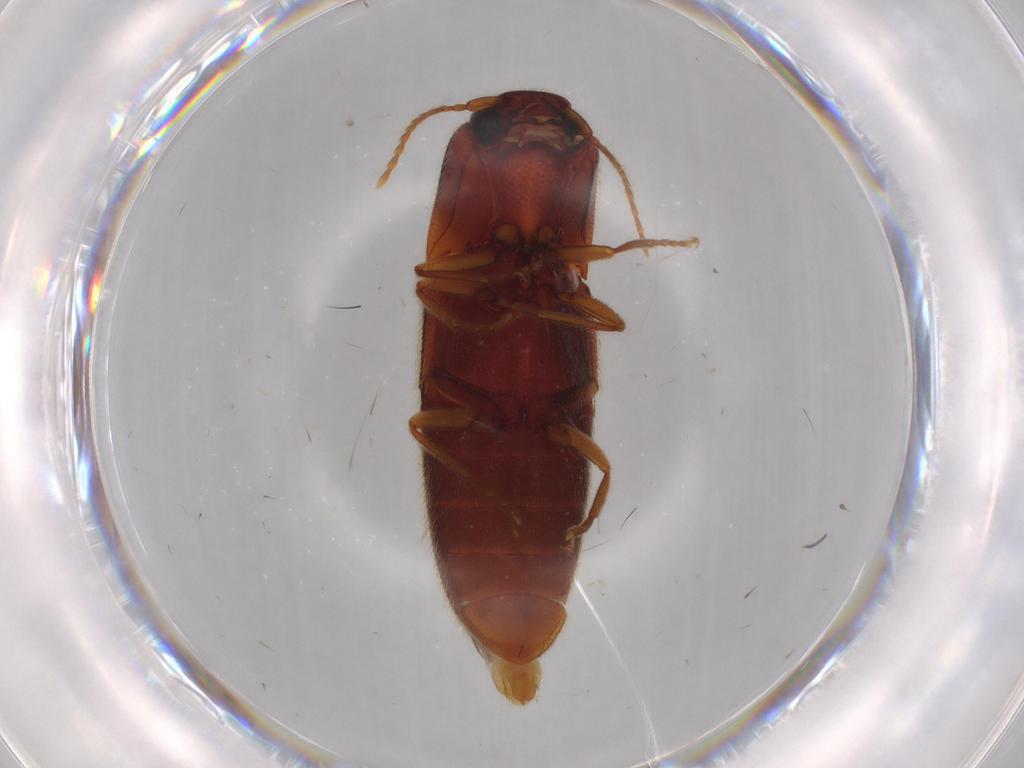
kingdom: Animalia
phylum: Arthropoda
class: Insecta
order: Coleoptera
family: Elateridae
